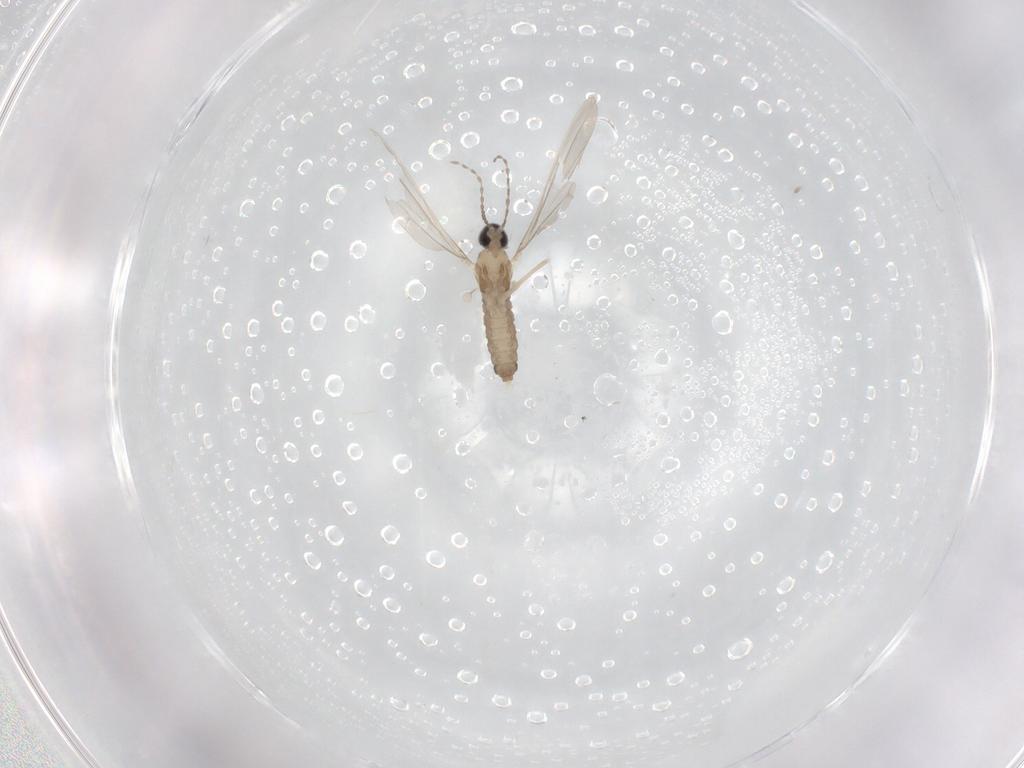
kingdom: Animalia
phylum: Arthropoda
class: Insecta
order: Diptera
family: Cecidomyiidae
